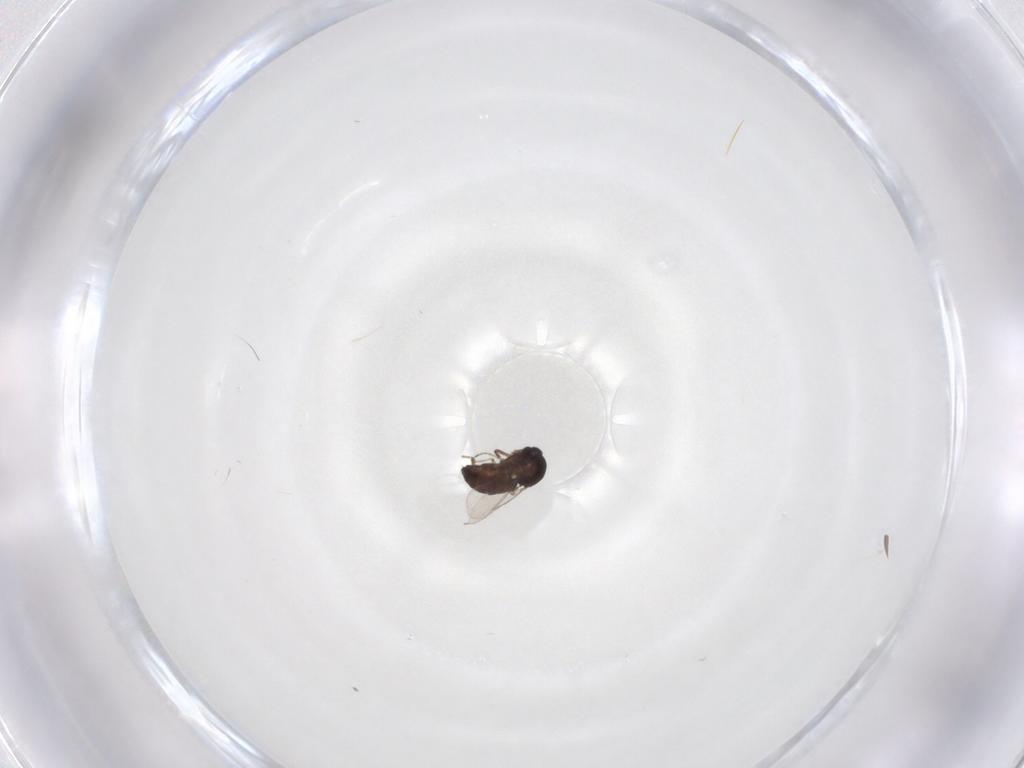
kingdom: Animalia
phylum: Arthropoda
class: Insecta
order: Diptera
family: Ceratopogonidae
